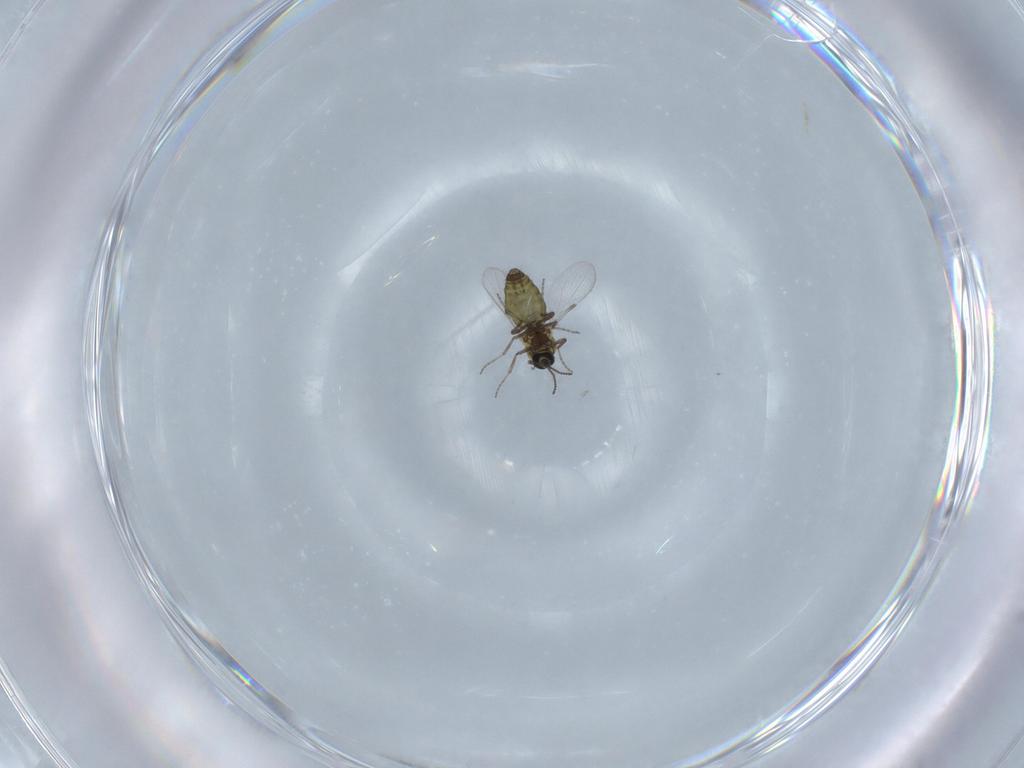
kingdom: Animalia
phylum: Arthropoda
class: Insecta
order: Diptera
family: Ceratopogonidae
